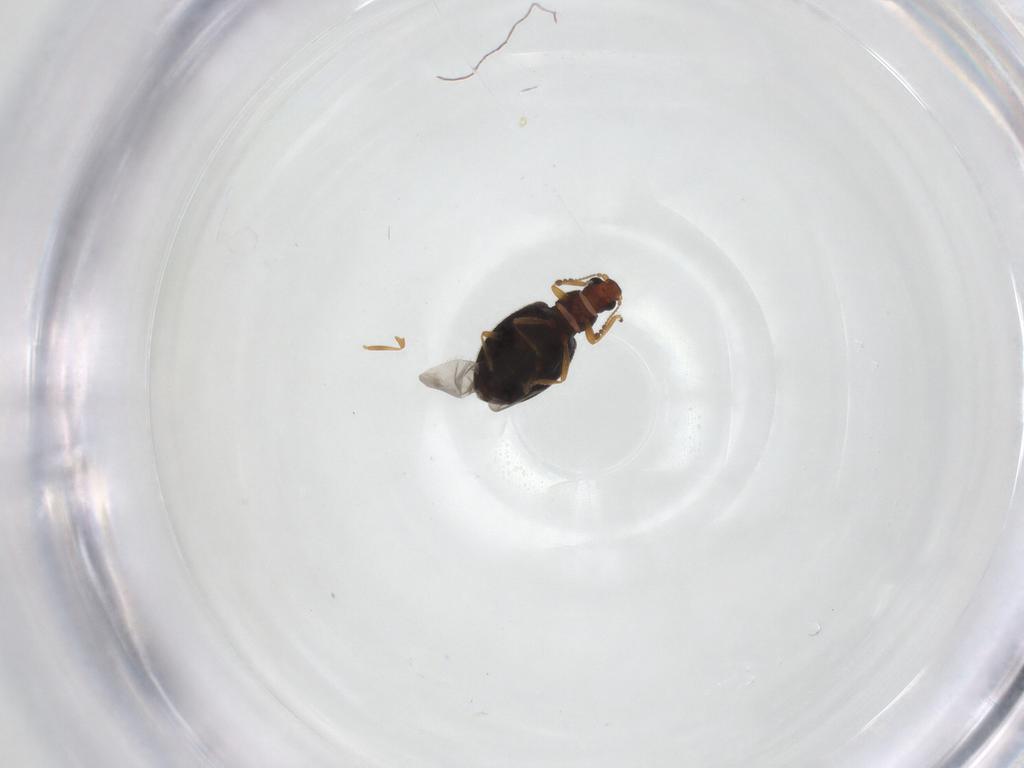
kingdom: Animalia
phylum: Arthropoda
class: Insecta
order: Coleoptera
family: Latridiidae
